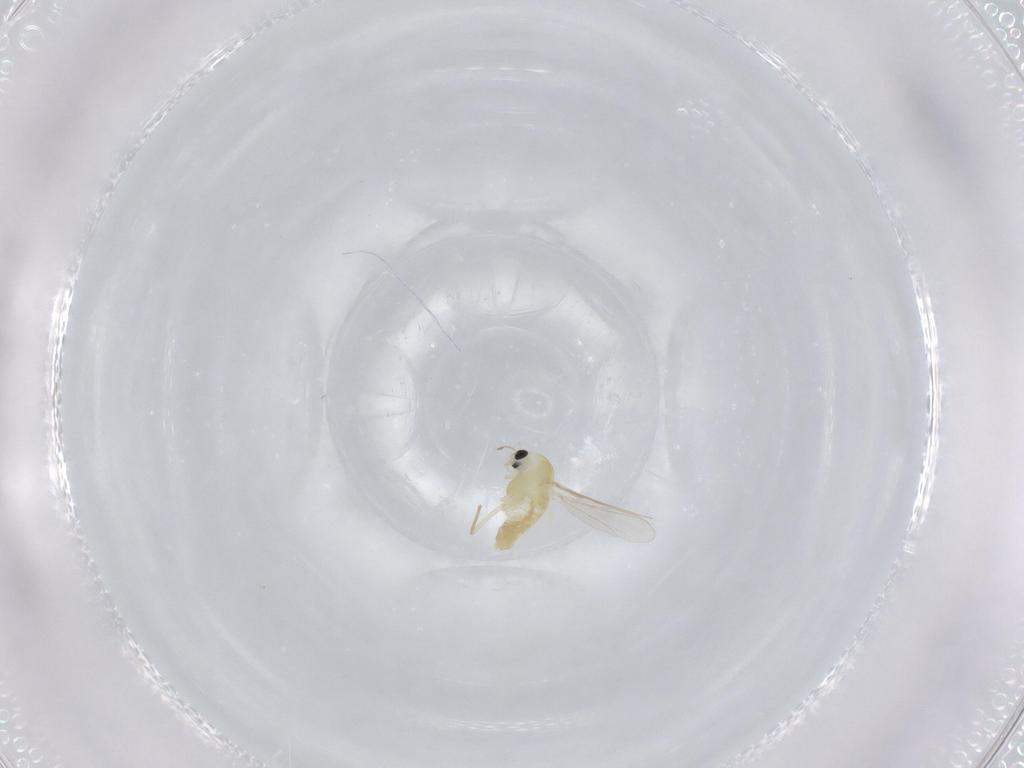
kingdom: Animalia
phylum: Arthropoda
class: Insecta
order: Diptera
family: Chironomidae
